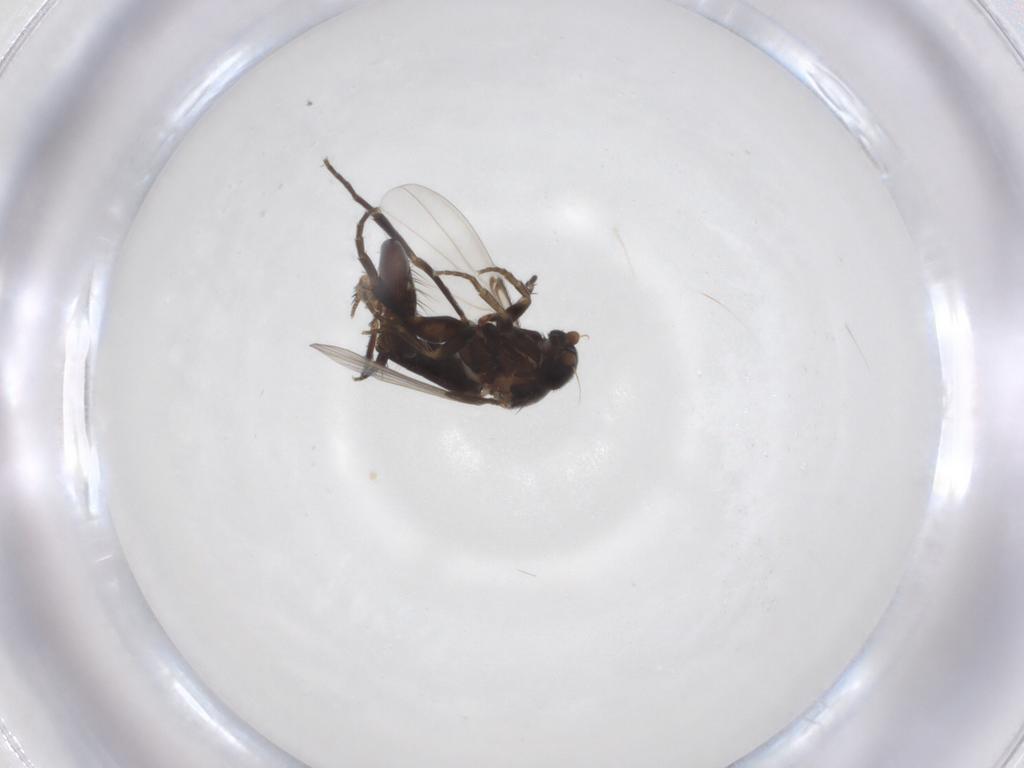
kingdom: Animalia
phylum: Arthropoda
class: Insecta
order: Diptera
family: Phoridae
